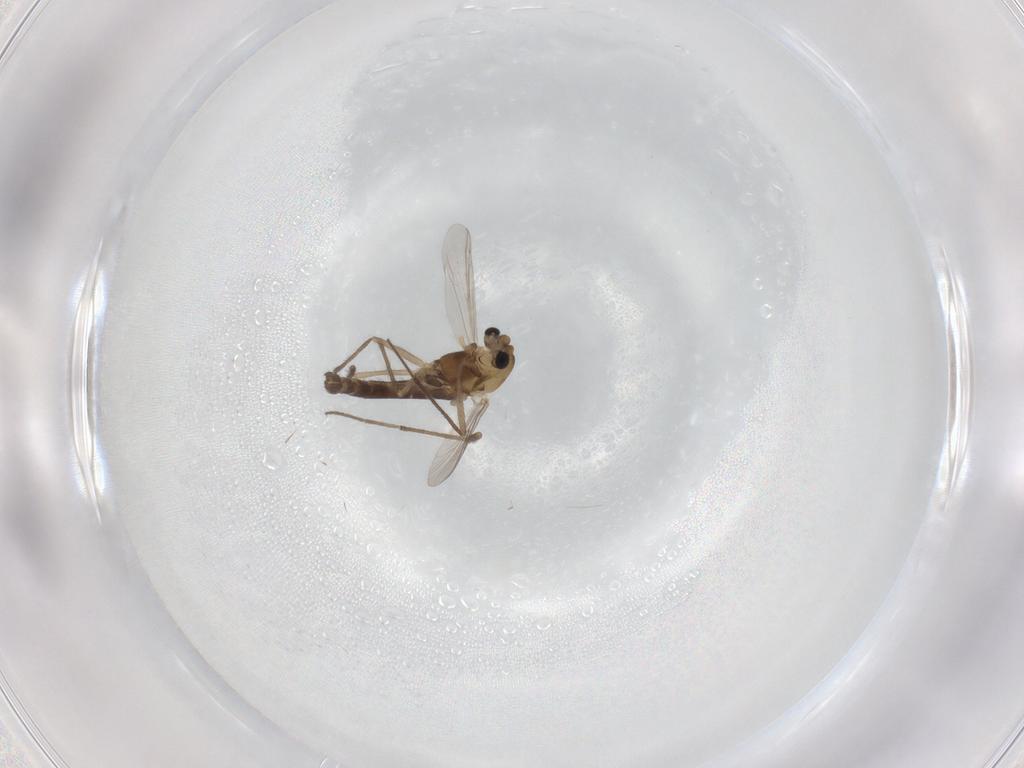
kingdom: Animalia
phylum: Arthropoda
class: Insecta
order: Diptera
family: Chironomidae
